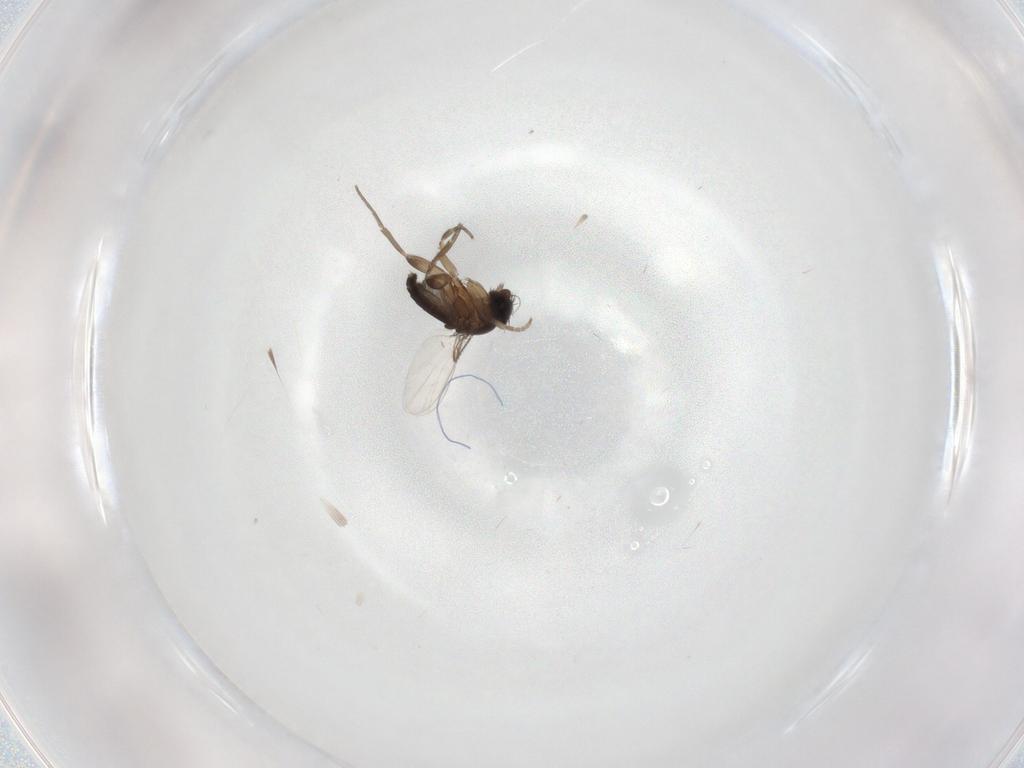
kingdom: Animalia
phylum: Arthropoda
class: Insecta
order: Diptera
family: Phoridae
